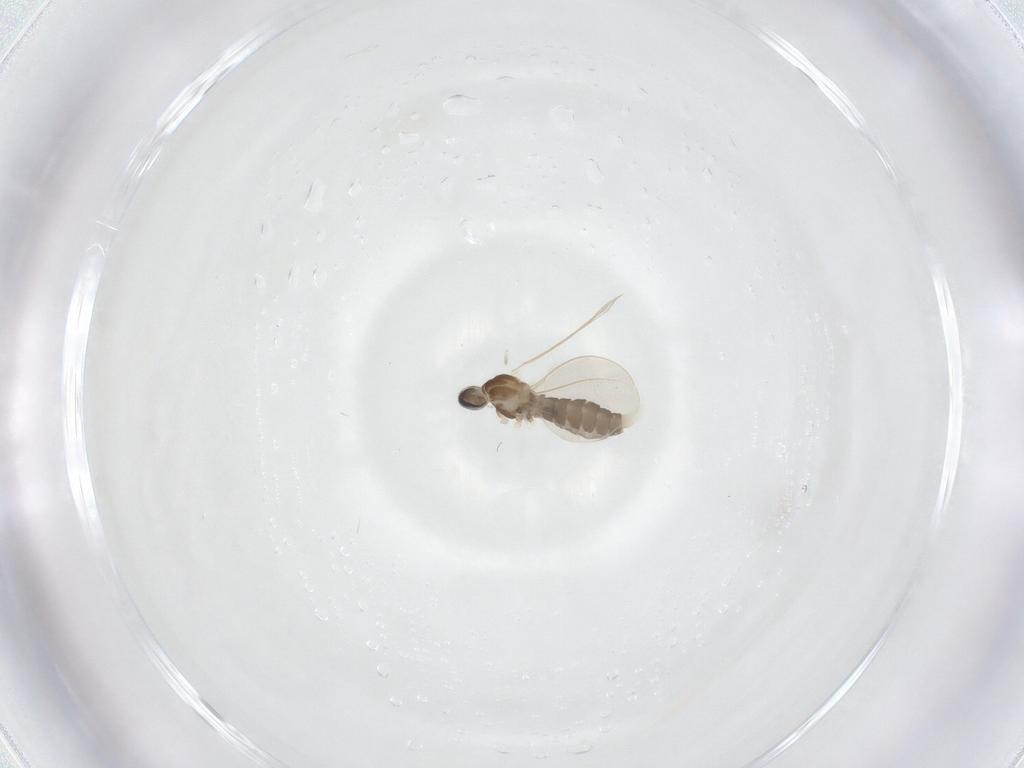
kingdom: Animalia
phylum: Arthropoda
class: Insecta
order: Diptera
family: Cecidomyiidae
